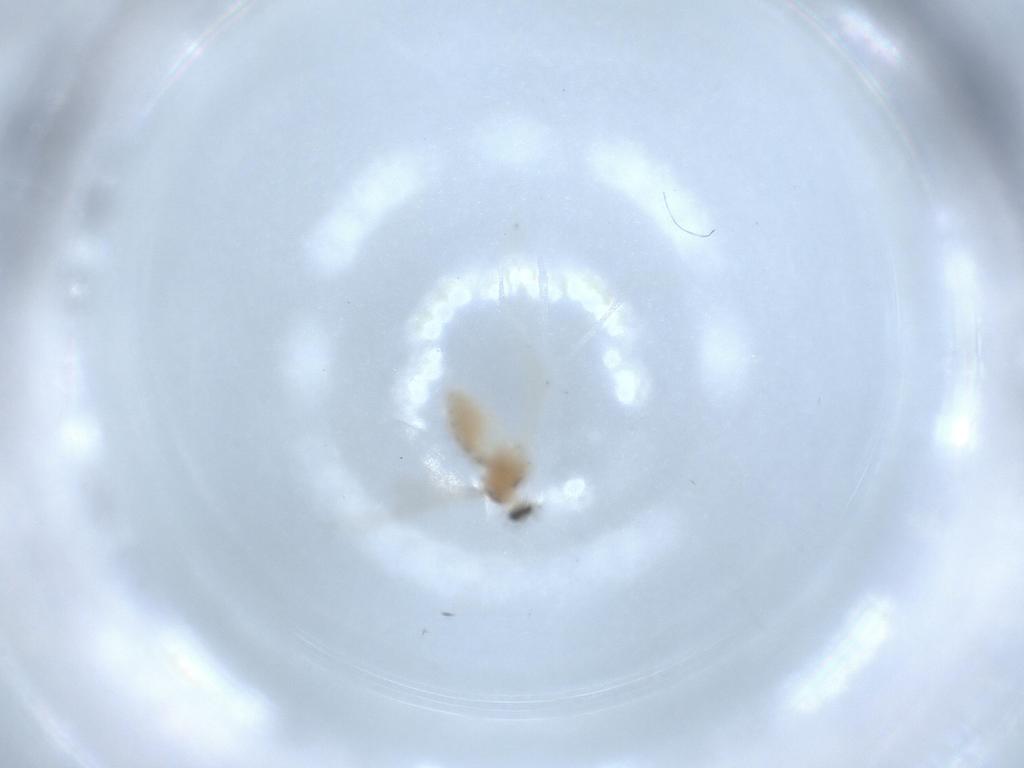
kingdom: Animalia
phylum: Arthropoda
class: Insecta
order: Diptera
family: Cecidomyiidae
